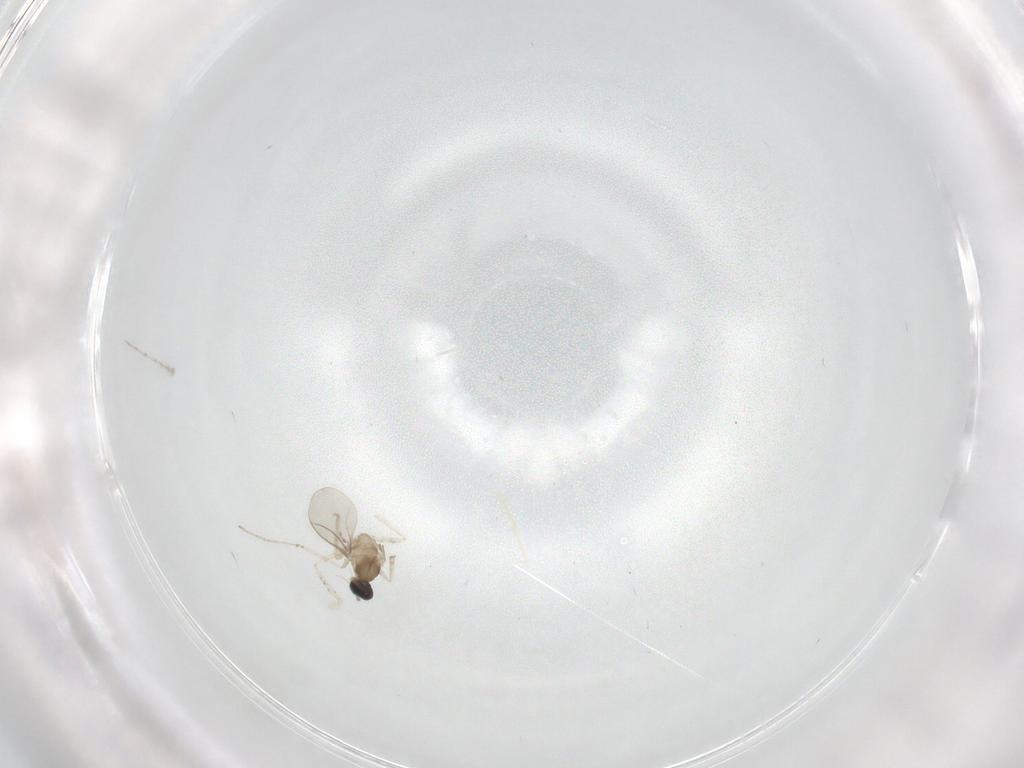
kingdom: Animalia
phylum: Arthropoda
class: Insecta
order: Diptera
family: Cecidomyiidae
